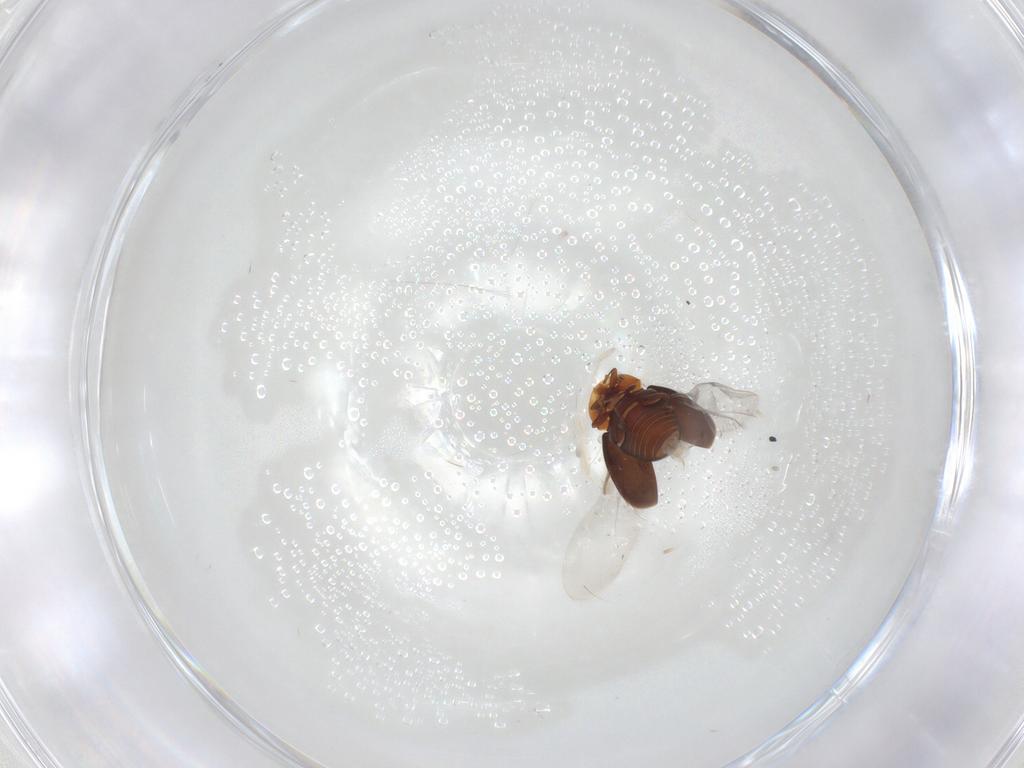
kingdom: Animalia
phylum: Arthropoda
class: Insecta
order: Coleoptera
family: Corylophidae
